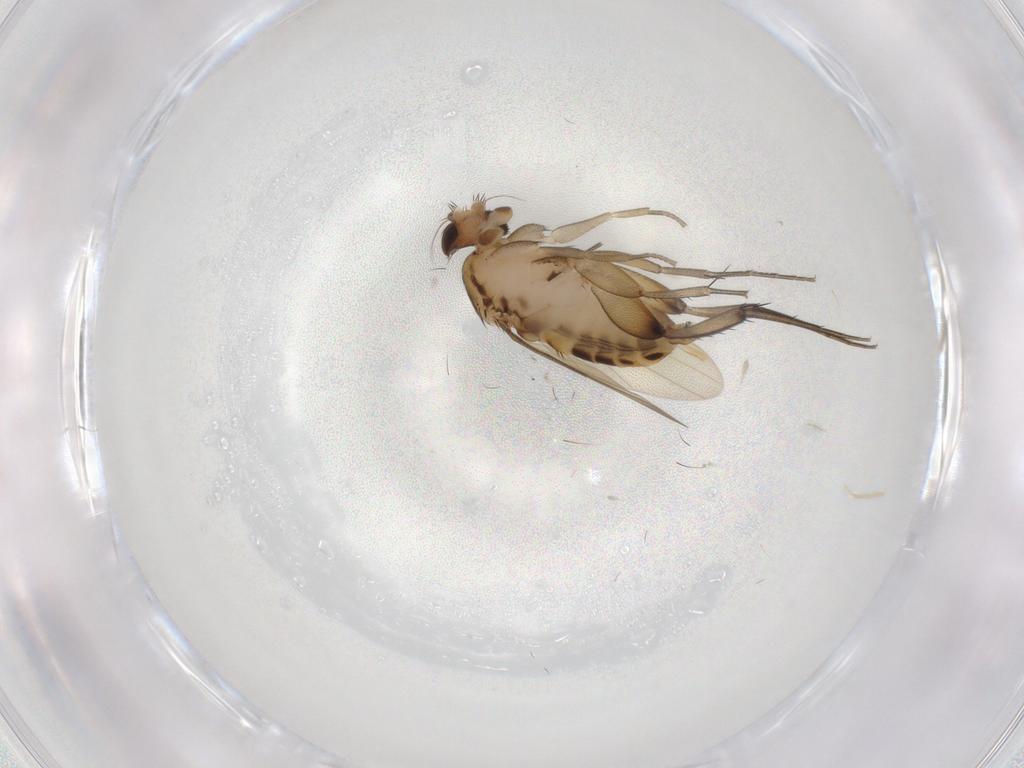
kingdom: Animalia
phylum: Arthropoda
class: Insecta
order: Diptera
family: Phoridae
